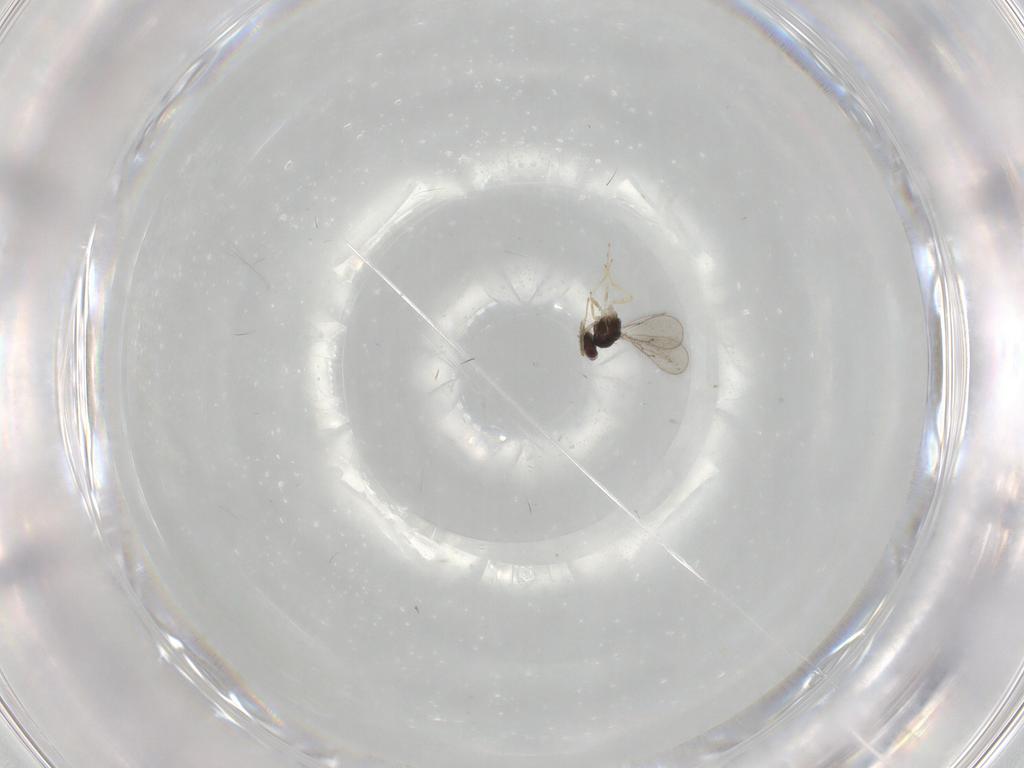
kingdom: Animalia
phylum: Arthropoda
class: Insecta
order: Hymenoptera
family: Eulophidae
